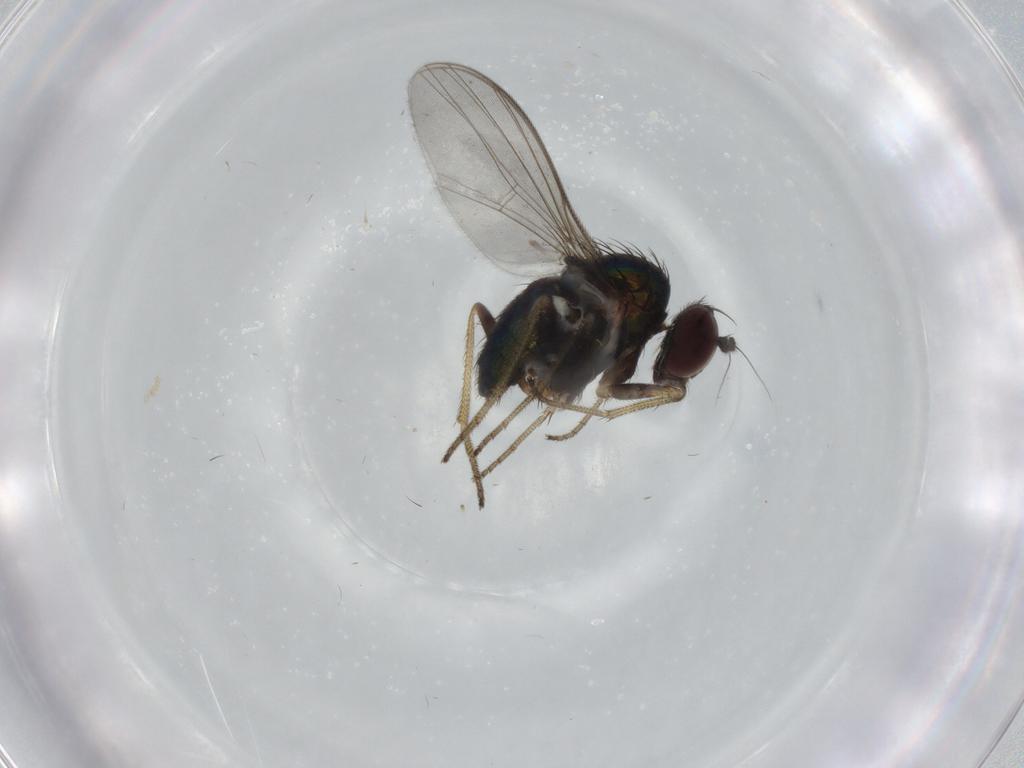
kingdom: Animalia
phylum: Arthropoda
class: Insecta
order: Diptera
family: Dolichopodidae
